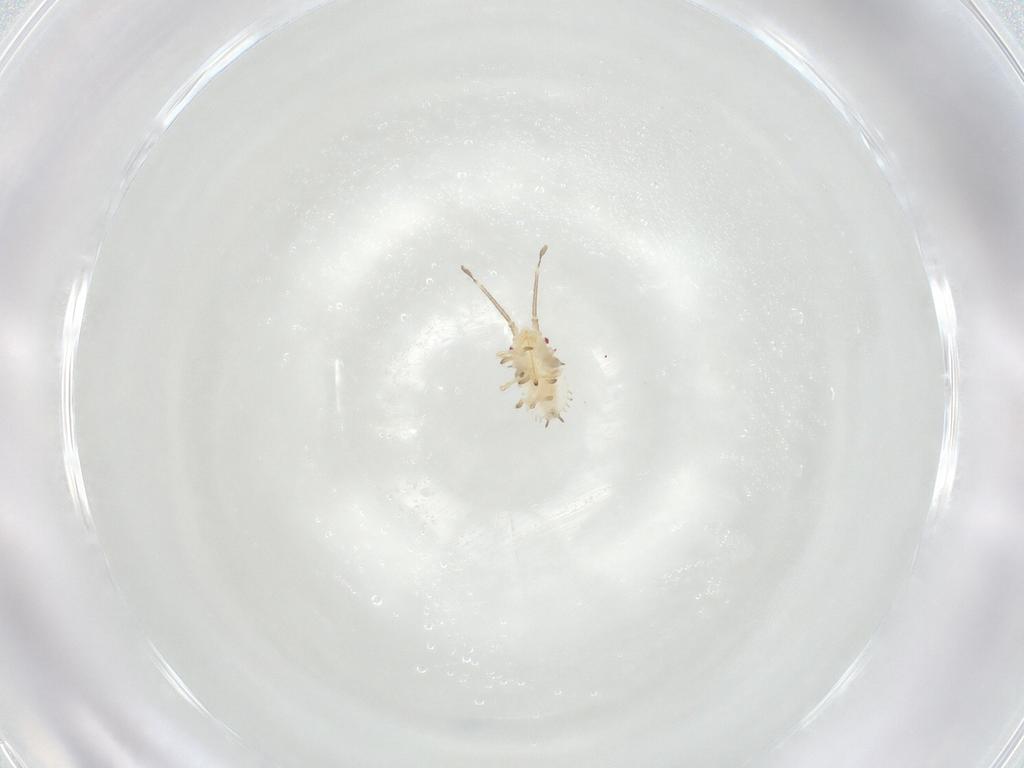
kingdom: Animalia
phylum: Arthropoda
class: Insecta
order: Hemiptera
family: Tingidae
